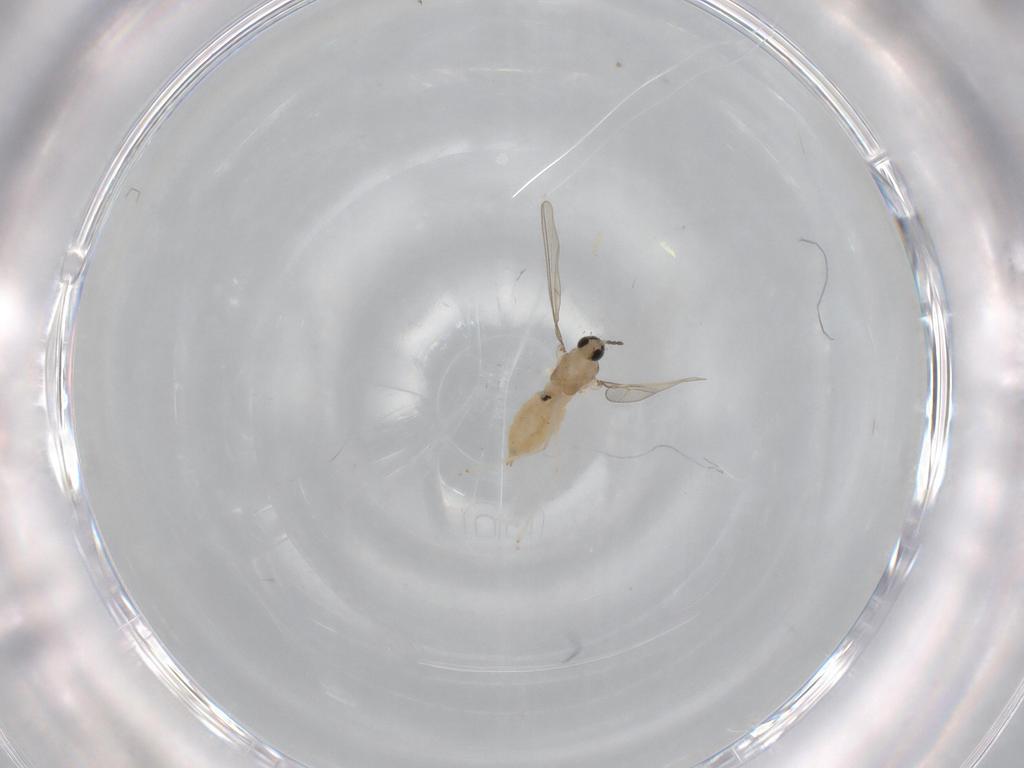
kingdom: Animalia
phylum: Arthropoda
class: Insecta
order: Diptera
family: Cecidomyiidae
